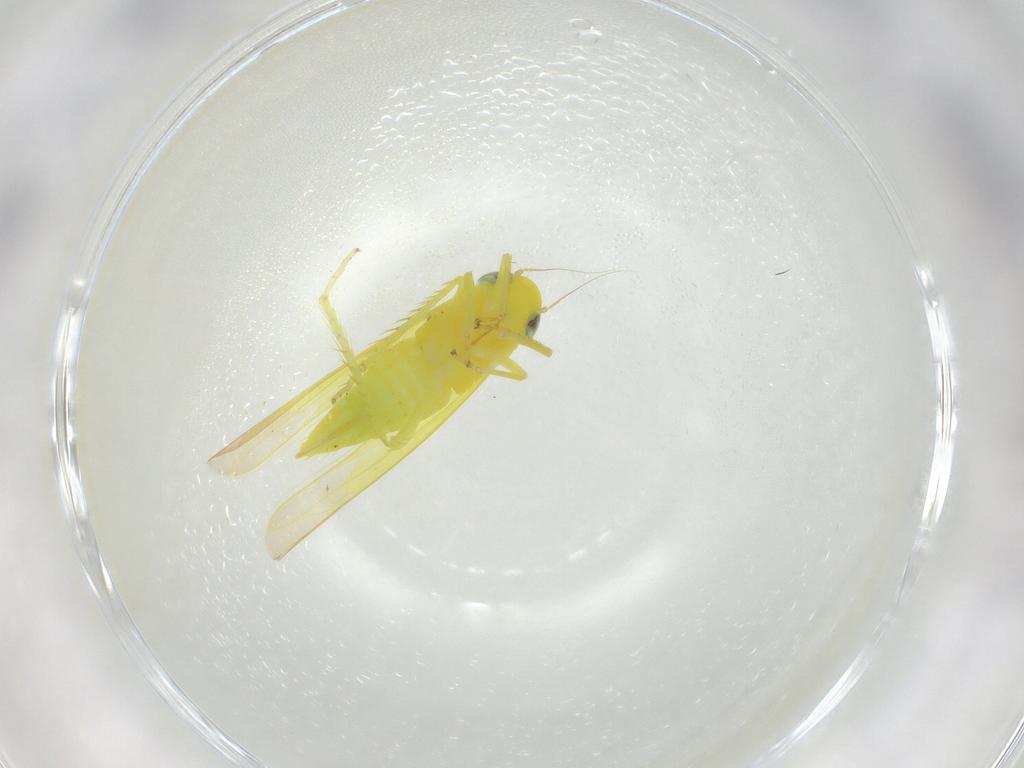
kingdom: Animalia
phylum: Arthropoda
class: Insecta
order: Hemiptera
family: Cicadellidae
